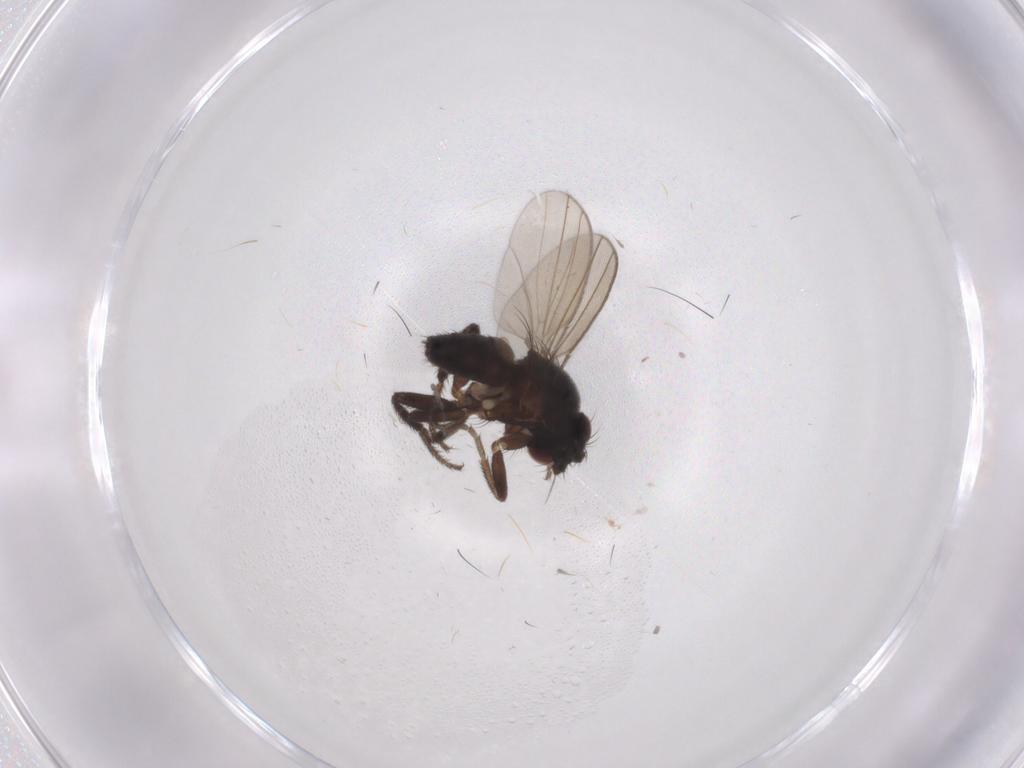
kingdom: Animalia
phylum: Arthropoda
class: Insecta
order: Diptera
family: Milichiidae
